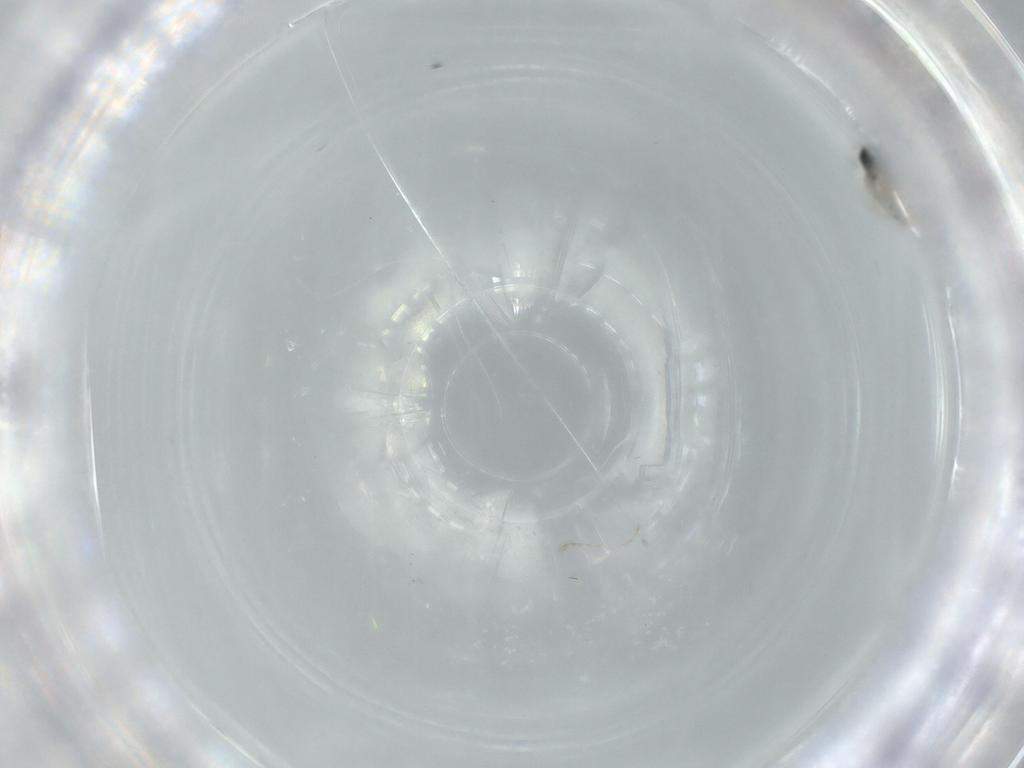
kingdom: Animalia
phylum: Arthropoda
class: Insecta
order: Diptera
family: Cecidomyiidae
